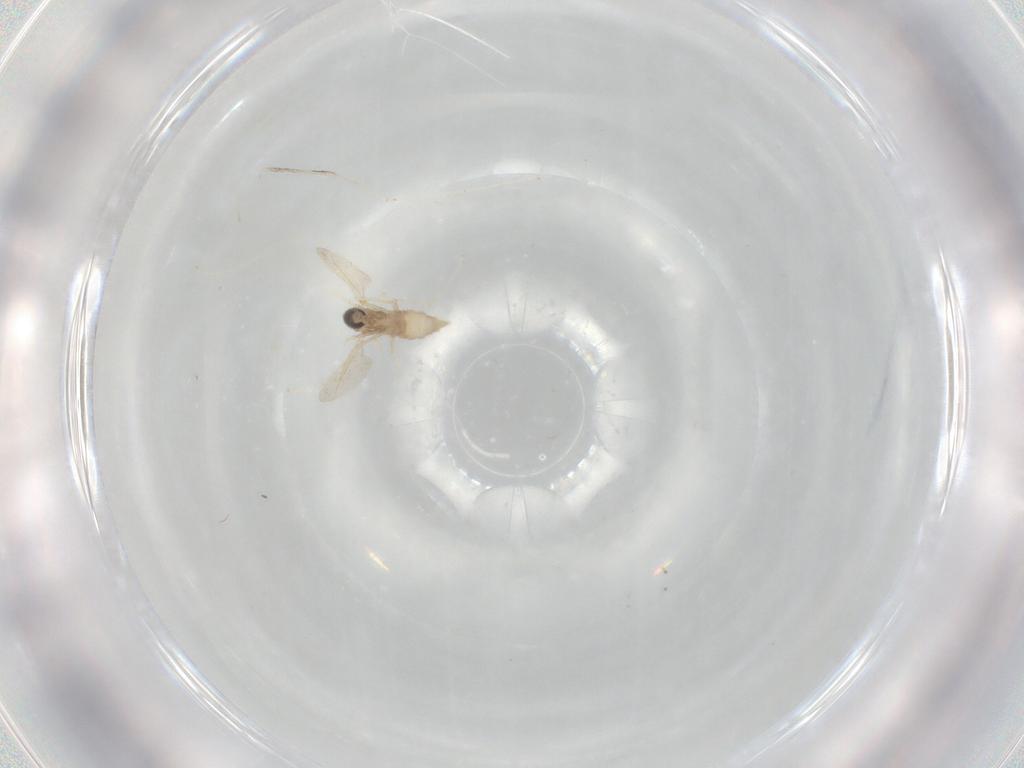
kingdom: Animalia
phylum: Arthropoda
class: Insecta
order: Diptera
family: Cecidomyiidae
